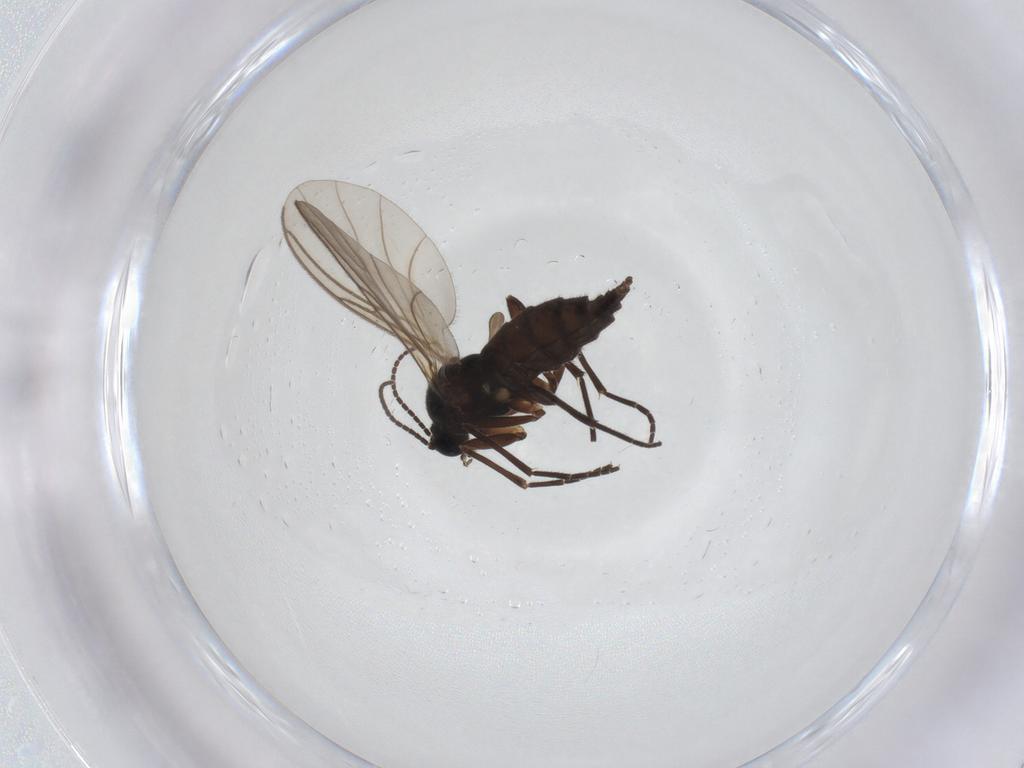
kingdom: Animalia
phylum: Arthropoda
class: Insecta
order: Diptera
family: Sciaridae
